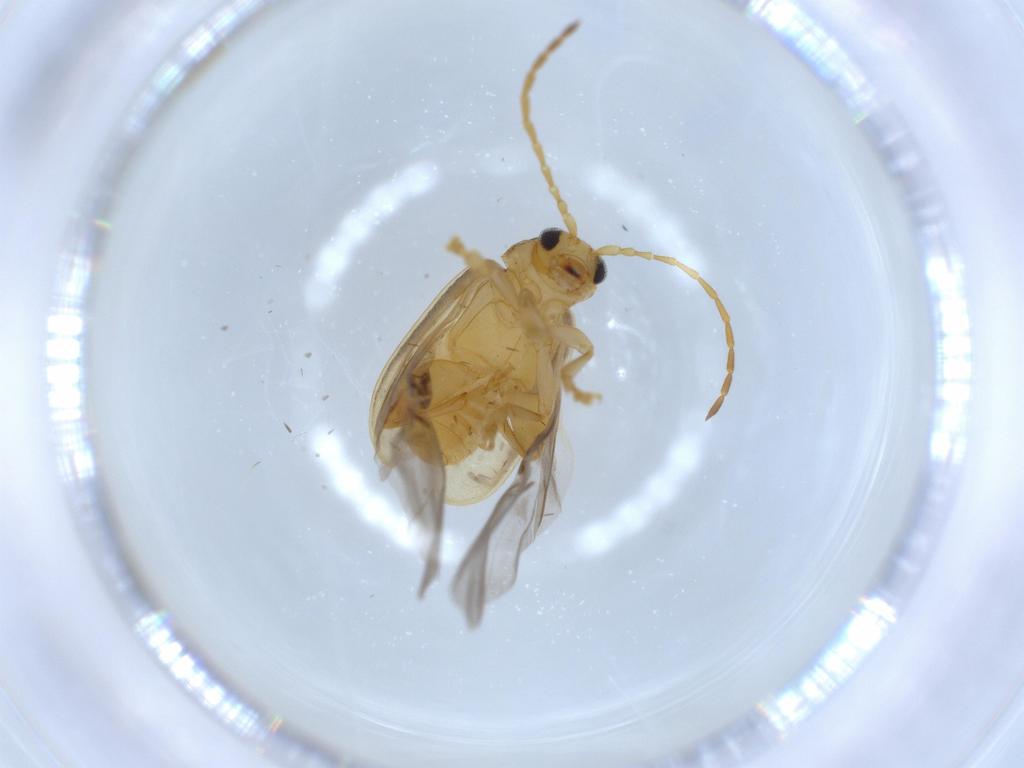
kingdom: Animalia
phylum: Arthropoda
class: Insecta
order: Coleoptera
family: Chrysomelidae
